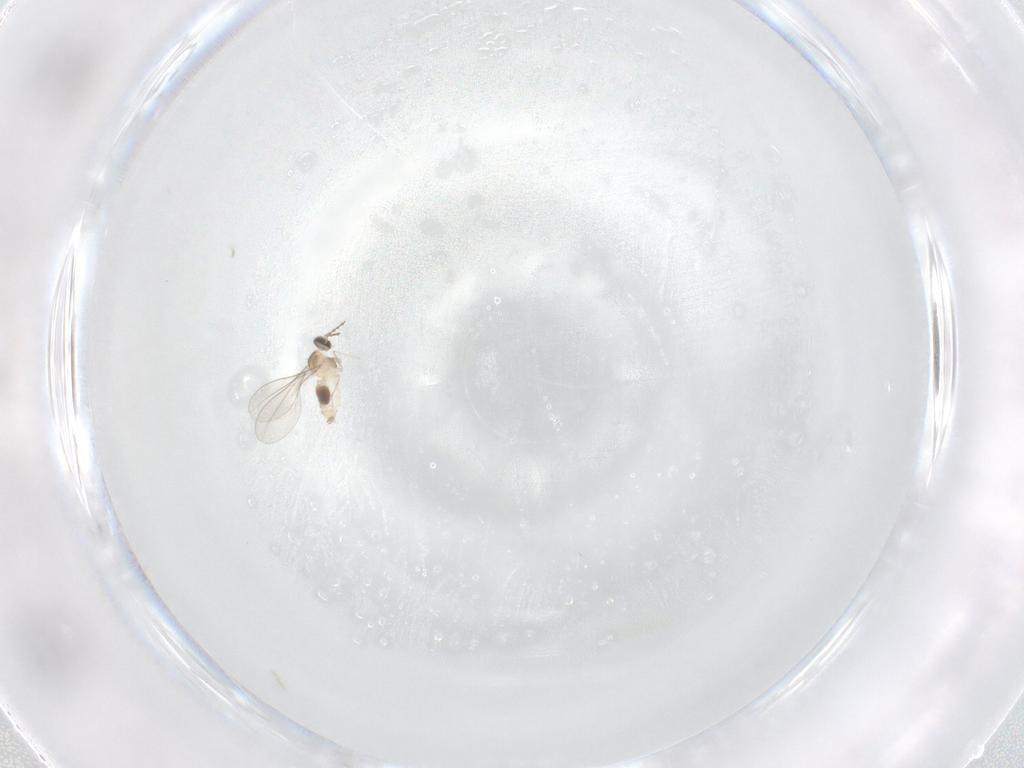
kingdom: Animalia
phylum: Arthropoda
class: Insecta
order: Diptera
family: Cecidomyiidae
